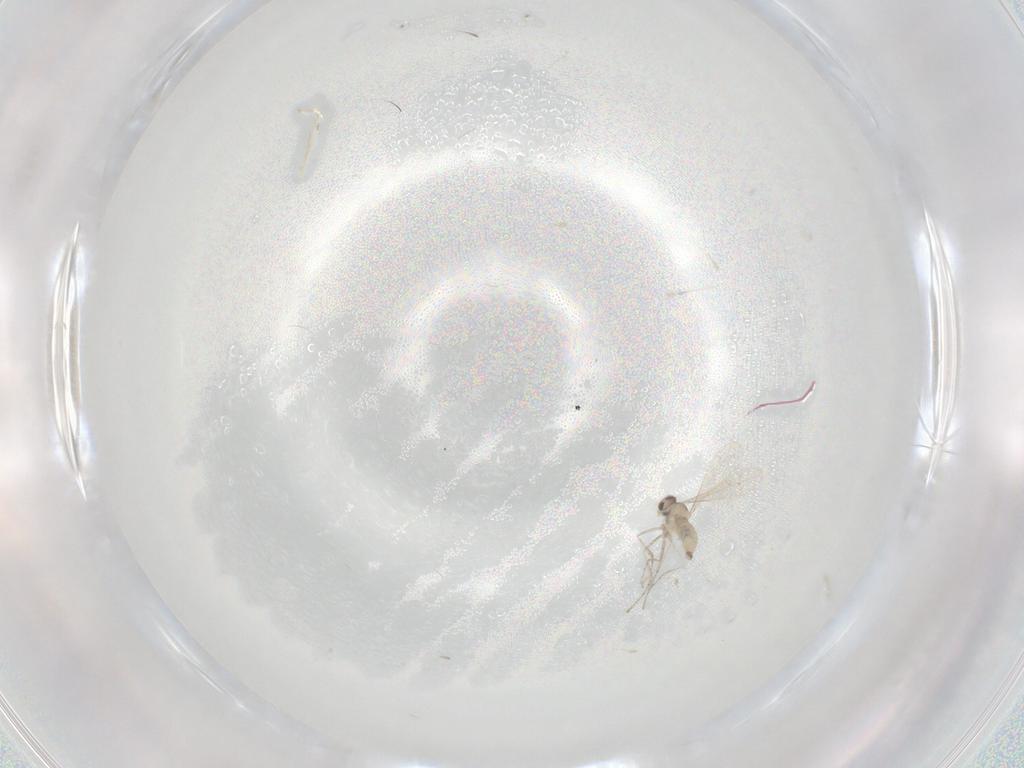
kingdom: Animalia
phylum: Arthropoda
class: Insecta
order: Diptera
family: Cecidomyiidae
